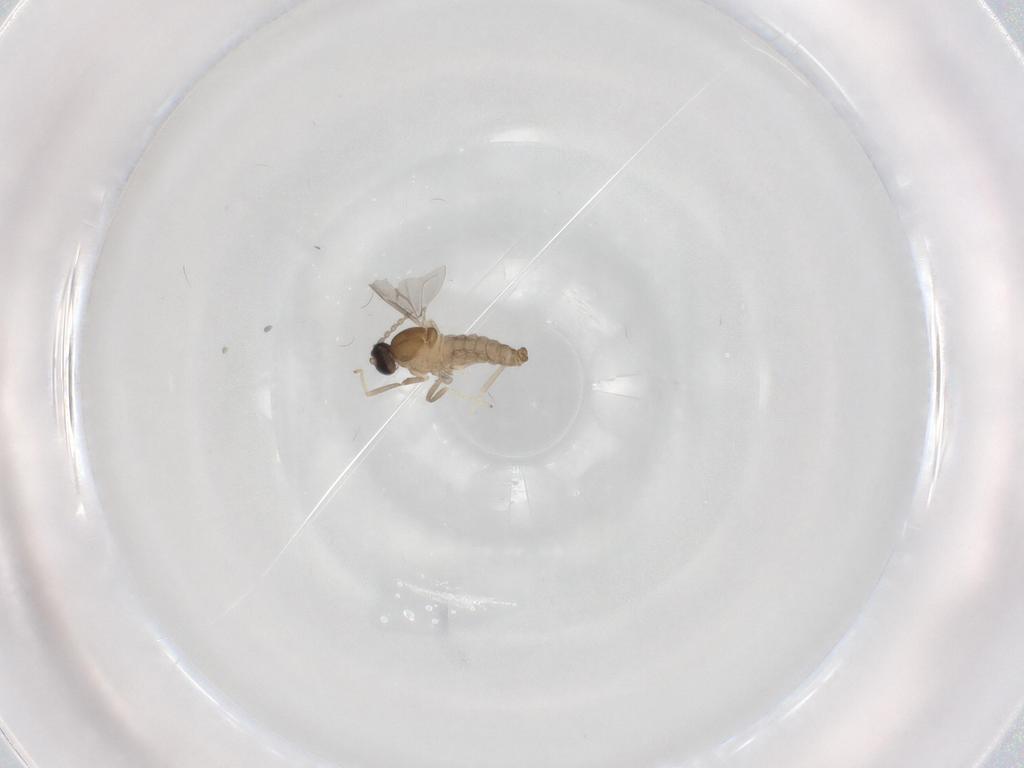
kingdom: Animalia
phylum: Arthropoda
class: Insecta
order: Diptera
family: Cecidomyiidae
